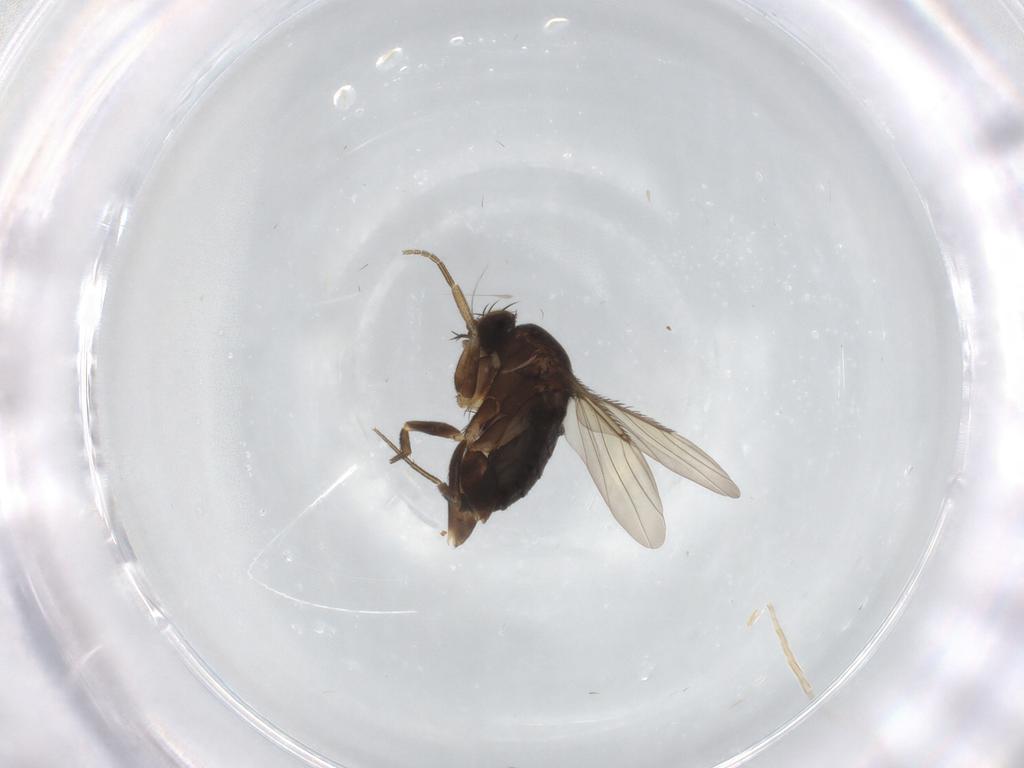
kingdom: Animalia
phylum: Arthropoda
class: Insecta
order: Diptera
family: Phoridae
